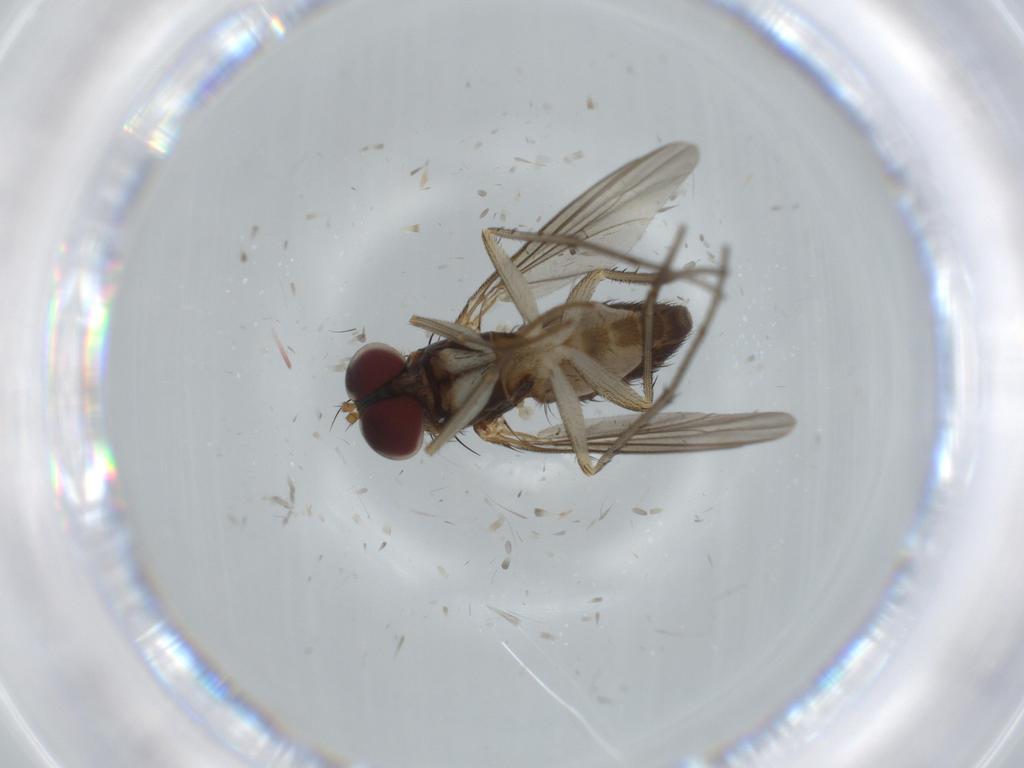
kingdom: Animalia
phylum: Arthropoda
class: Insecta
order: Diptera
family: Dolichopodidae
